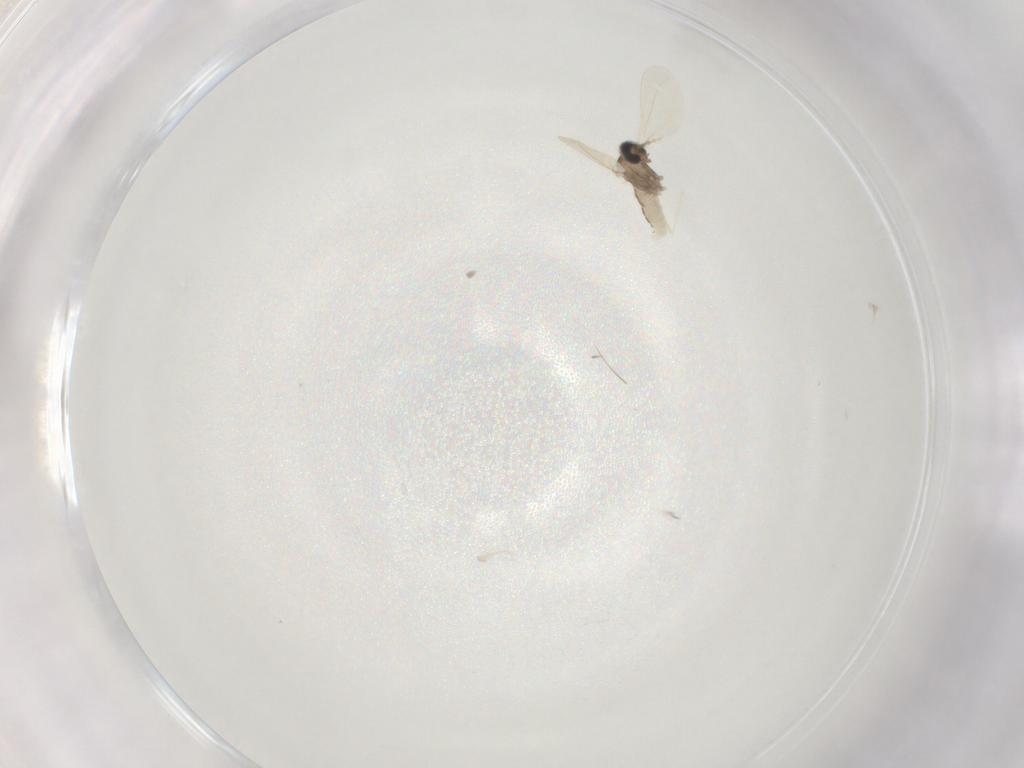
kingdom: Animalia
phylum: Arthropoda
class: Insecta
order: Diptera
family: Cecidomyiidae
